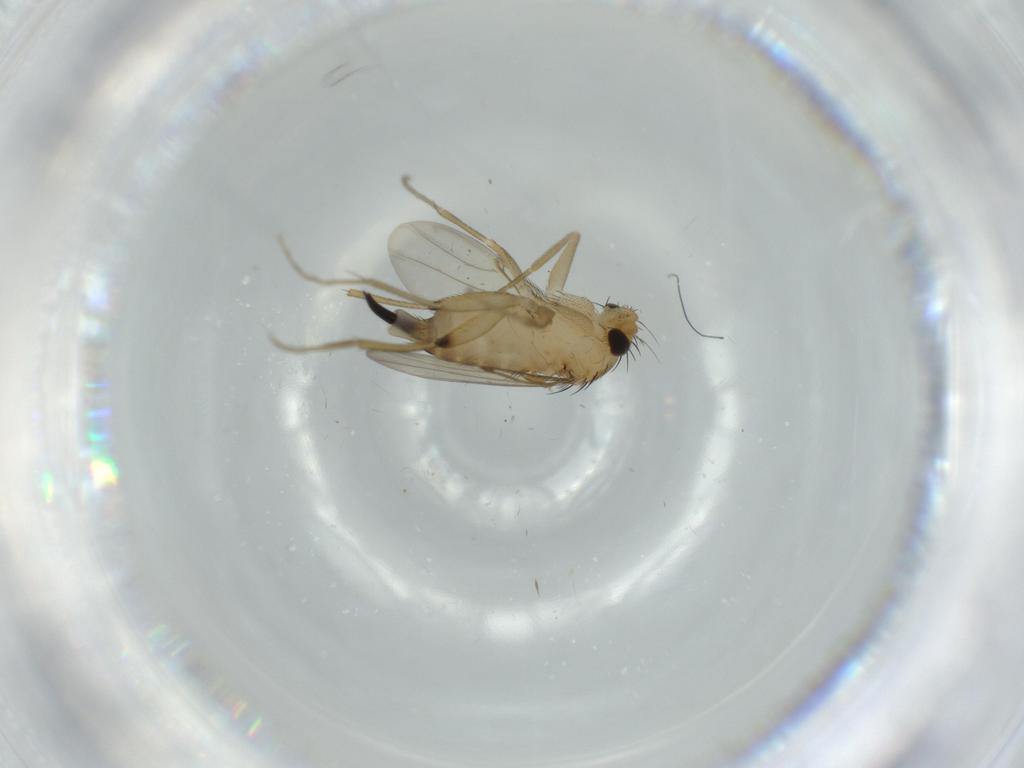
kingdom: Animalia
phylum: Arthropoda
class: Insecta
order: Diptera
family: Phoridae
